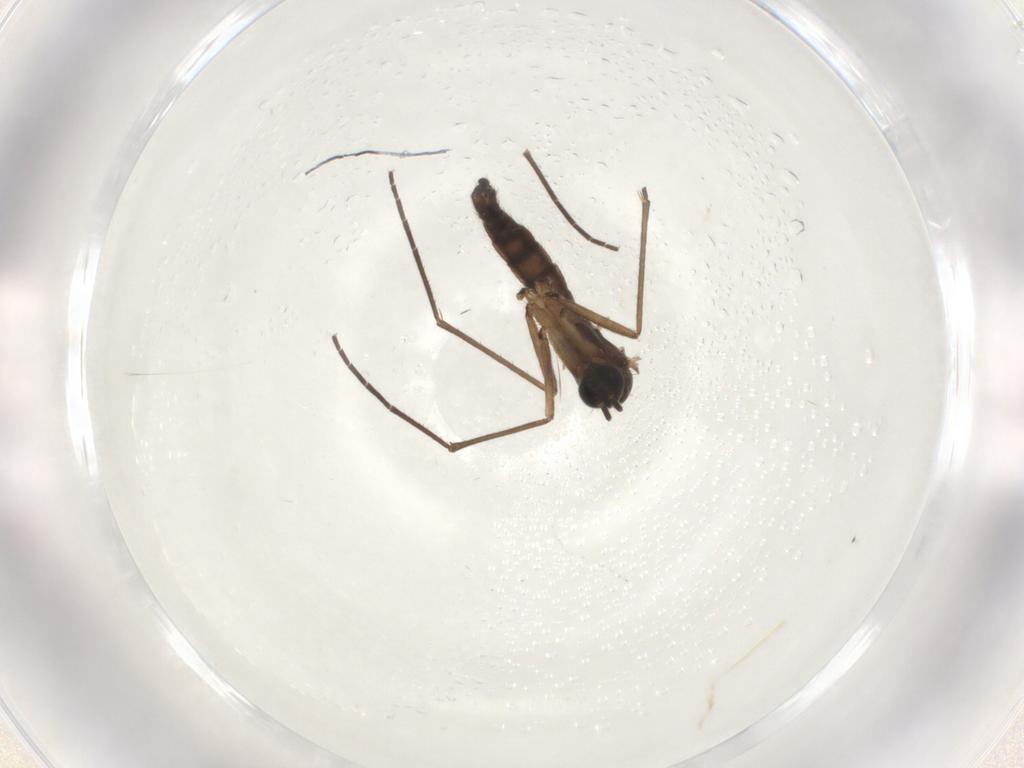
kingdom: Animalia
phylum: Arthropoda
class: Insecta
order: Diptera
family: Sciaridae
